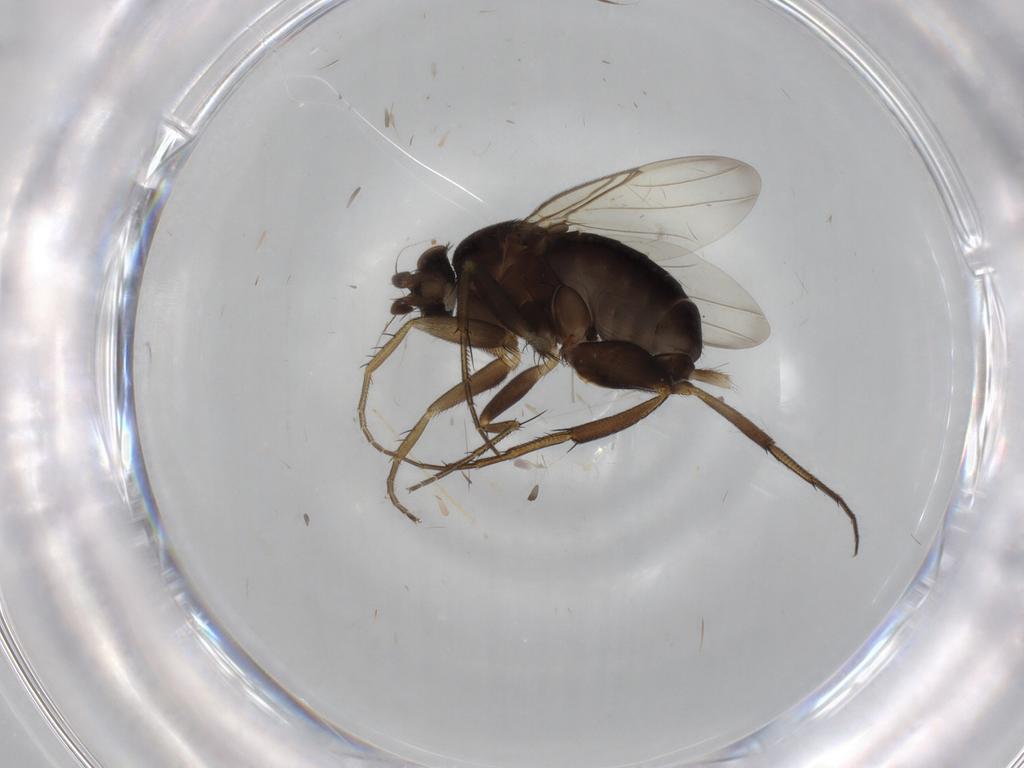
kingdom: Animalia
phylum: Arthropoda
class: Insecta
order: Diptera
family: Chironomidae
